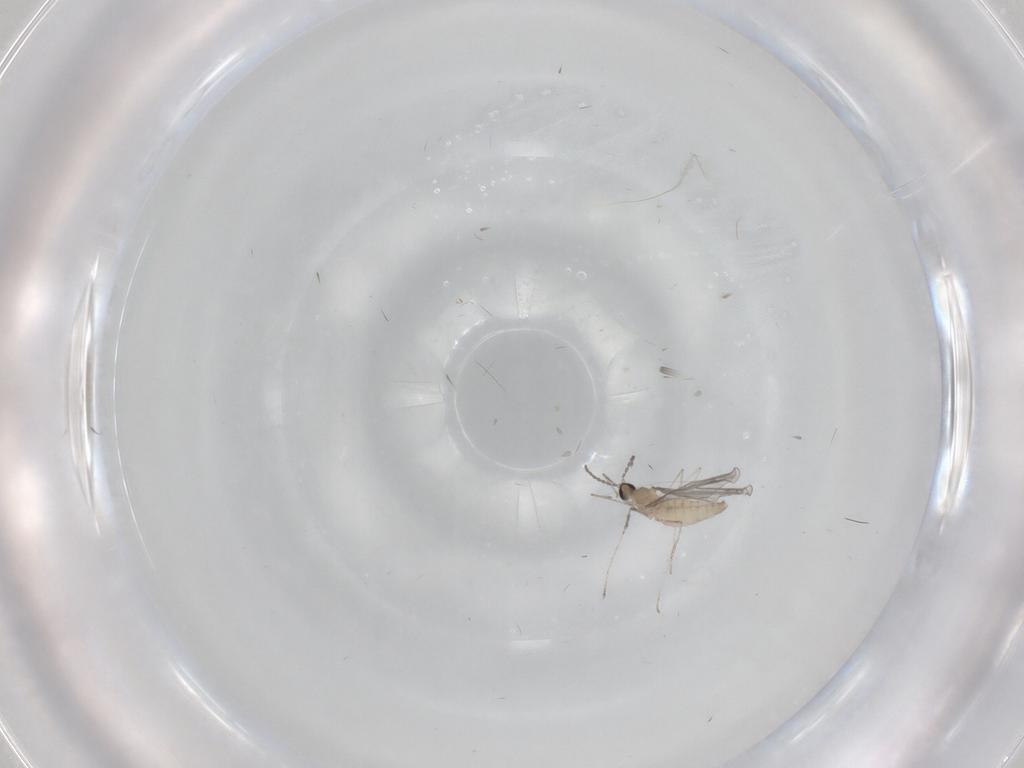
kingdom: Animalia
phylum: Arthropoda
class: Insecta
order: Diptera
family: Cecidomyiidae
